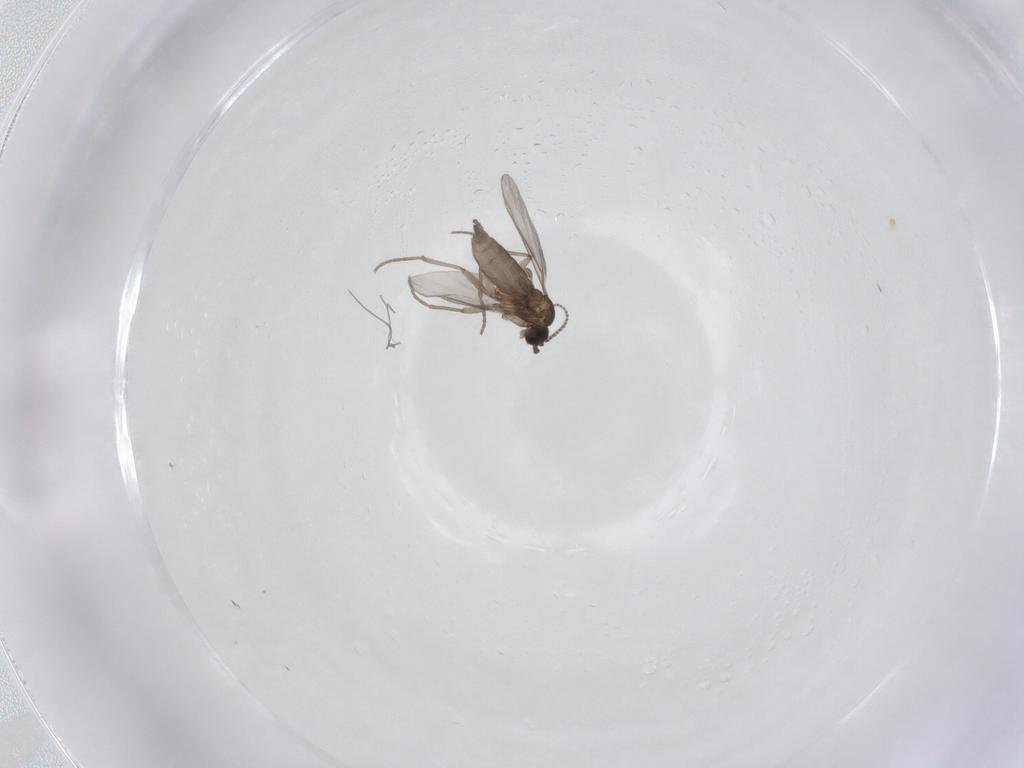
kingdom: Animalia
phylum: Arthropoda
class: Insecta
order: Diptera
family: Sciaridae
